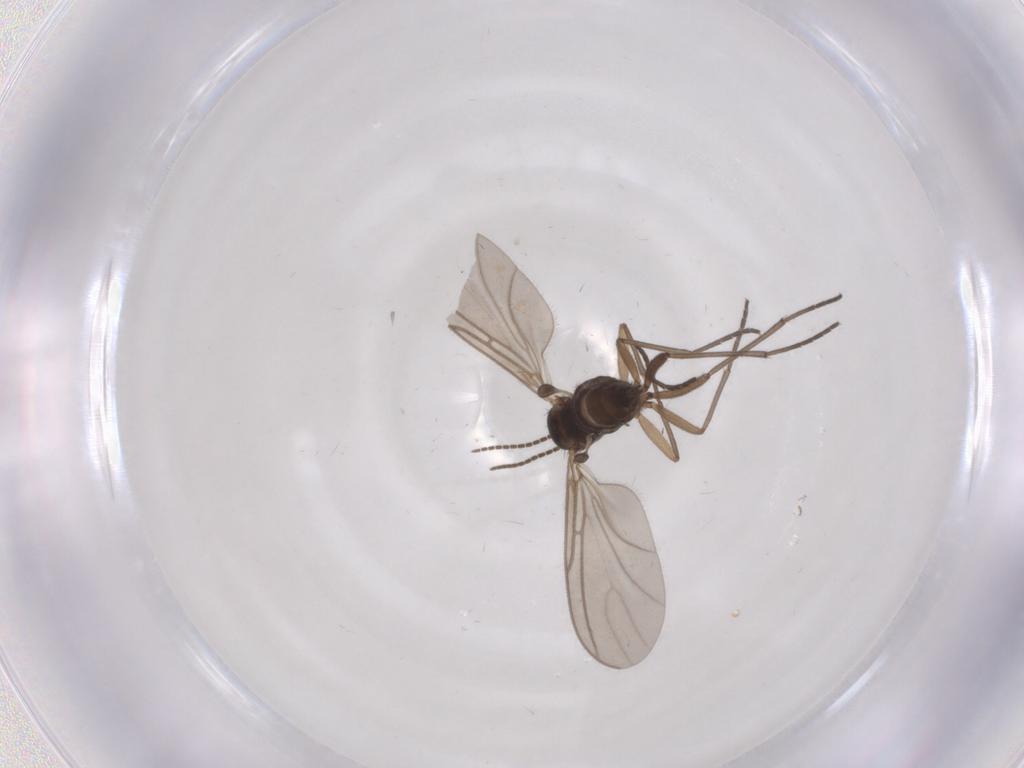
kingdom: Animalia
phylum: Arthropoda
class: Insecta
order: Diptera
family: Sciaridae
